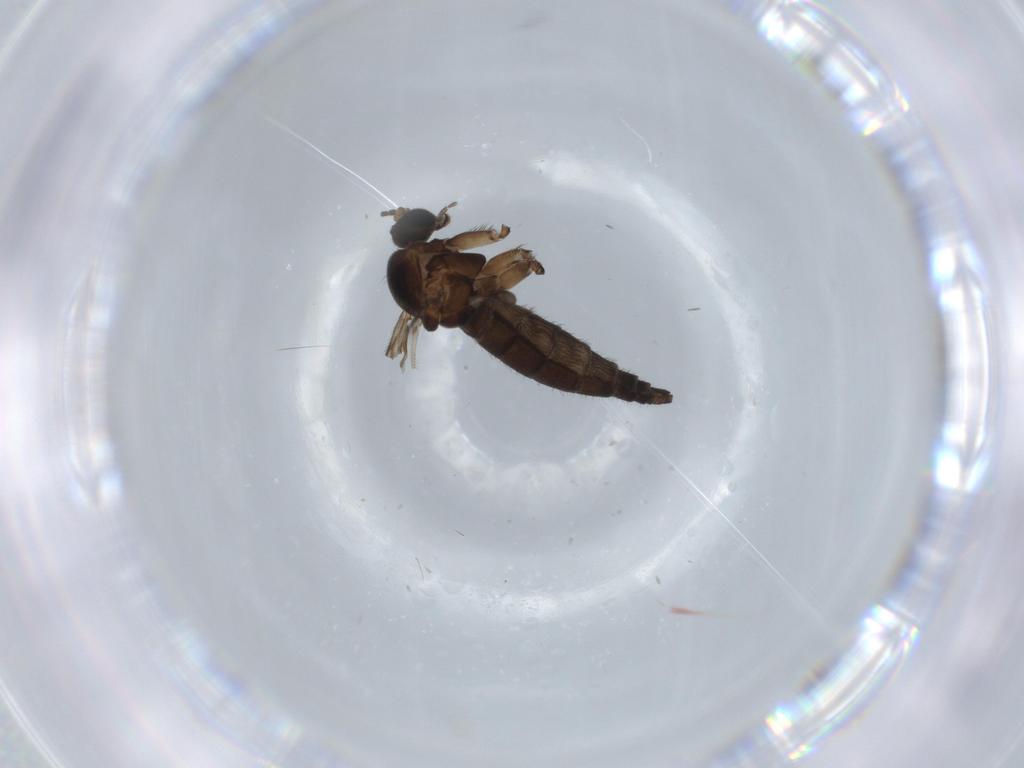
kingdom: Animalia
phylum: Arthropoda
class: Insecta
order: Diptera
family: Sciaridae
